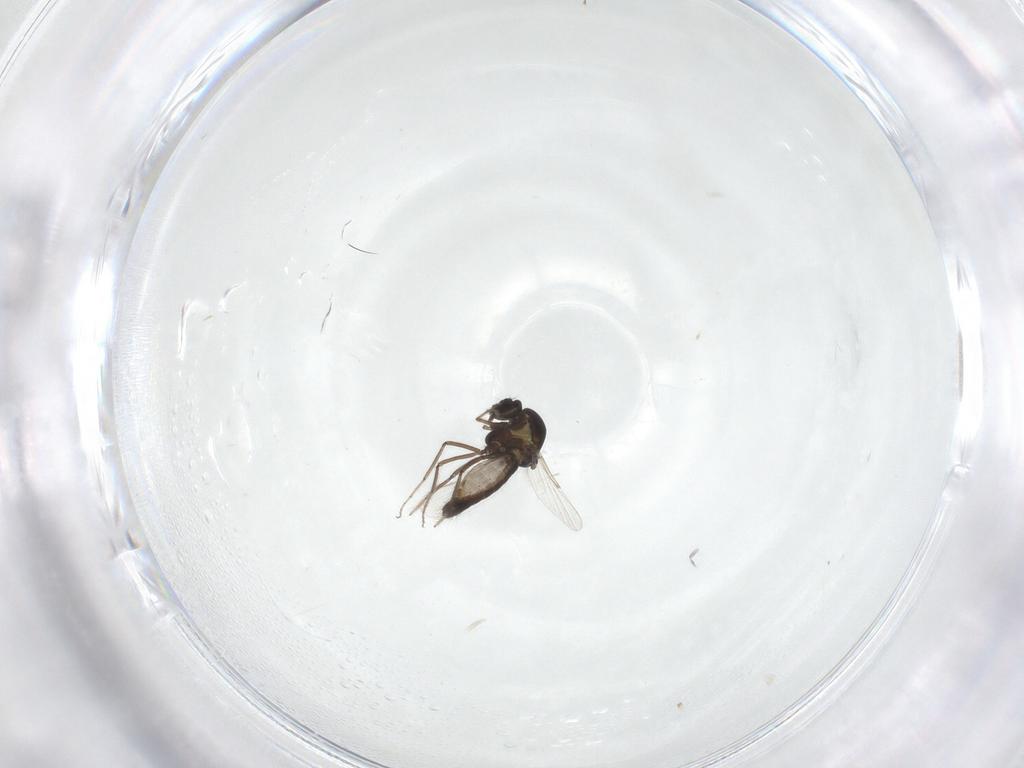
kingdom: Animalia
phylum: Arthropoda
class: Insecta
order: Diptera
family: Ceratopogonidae
